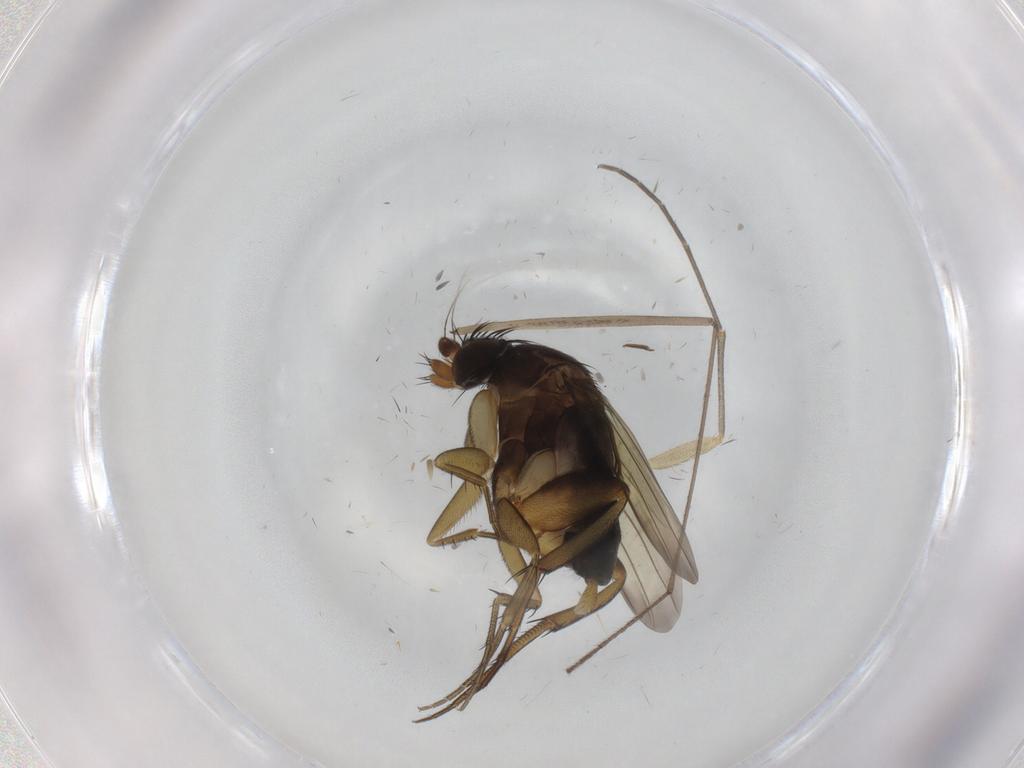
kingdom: Animalia
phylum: Arthropoda
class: Insecta
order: Diptera
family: Phoridae
